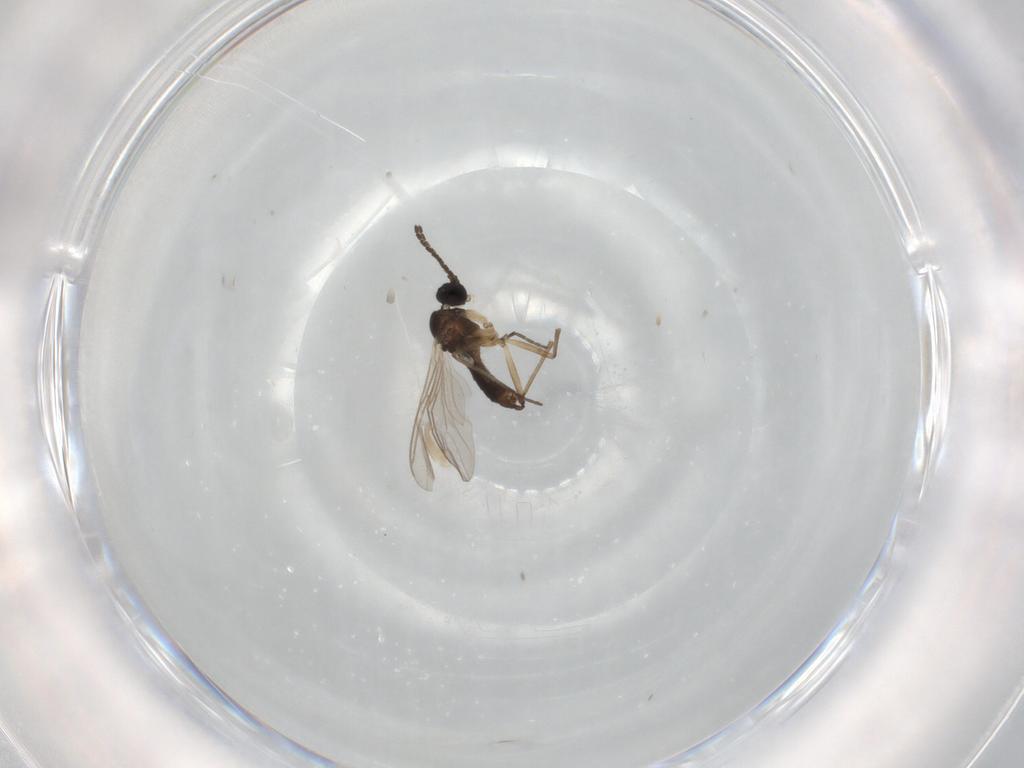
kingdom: Animalia
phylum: Arthropoda
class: Insecta
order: Diptera
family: Sciaridae
